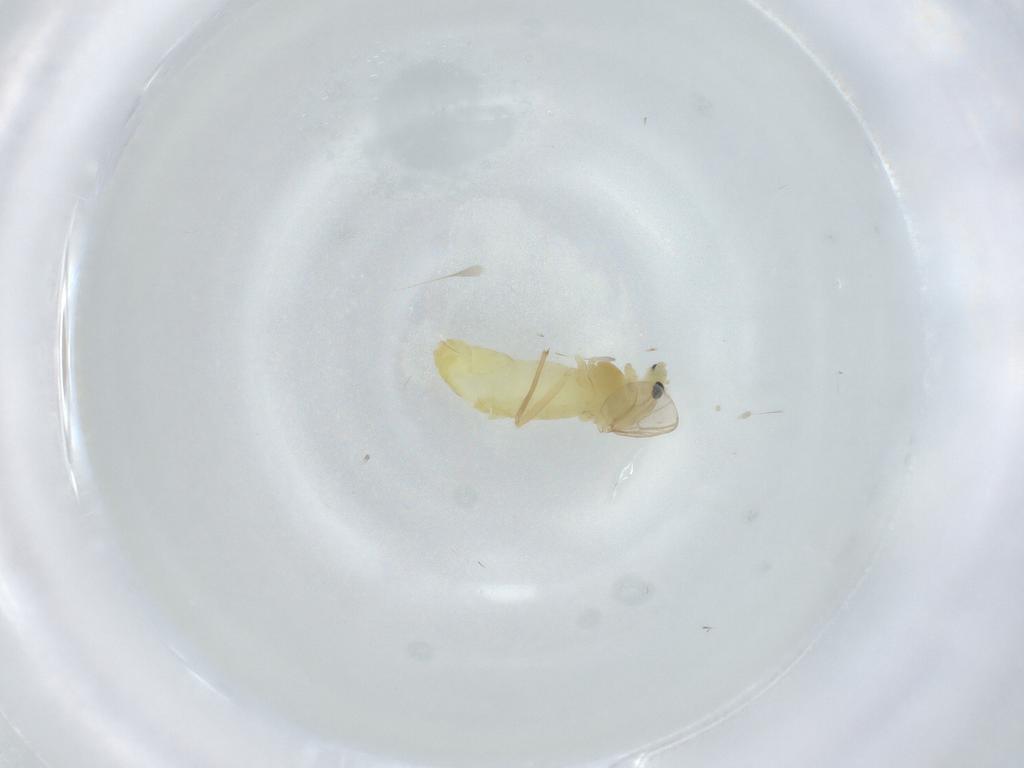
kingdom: Animalia
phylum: Arthropoda
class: Insecta
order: Diptera
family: Chironomidae
